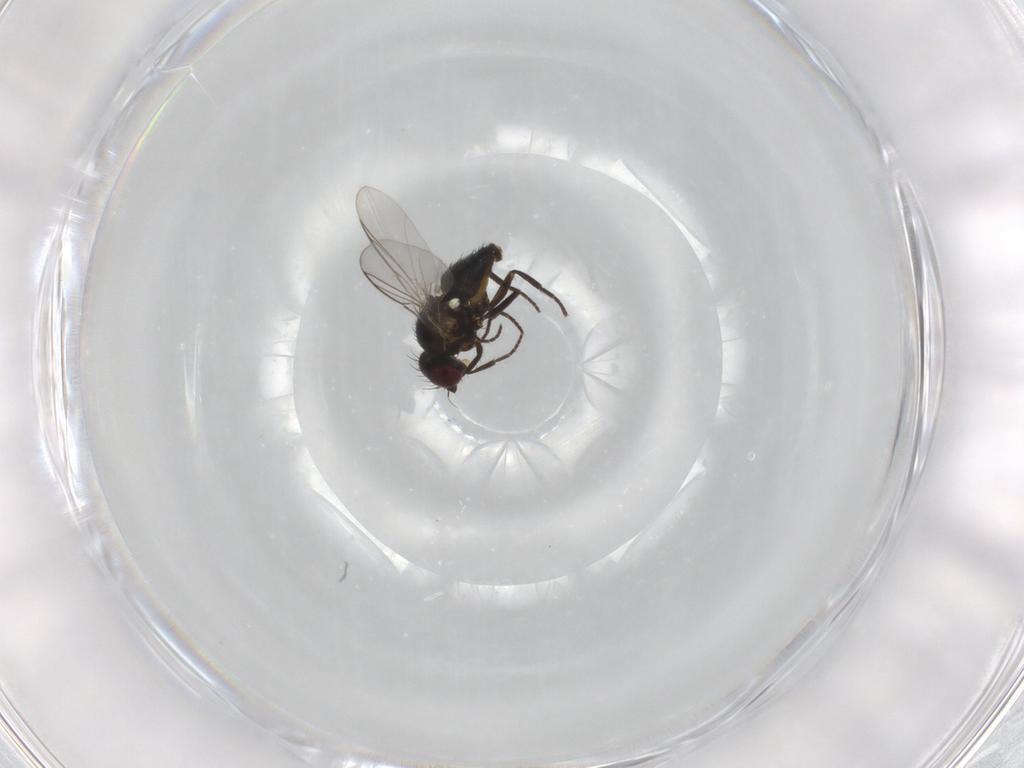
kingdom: Animalia
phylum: Arthropoda
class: Insecta
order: Diptera
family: Agromyzidae
